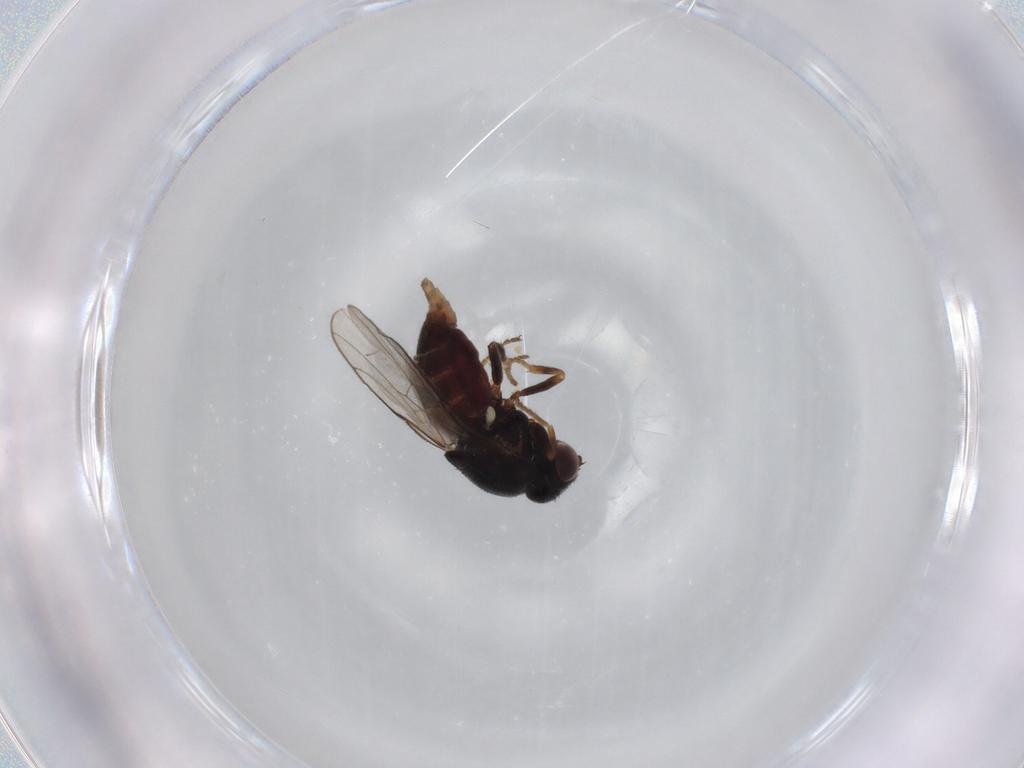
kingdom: Animalia
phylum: Arthropoda
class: Insecta
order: Diptera
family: Chloropidae
